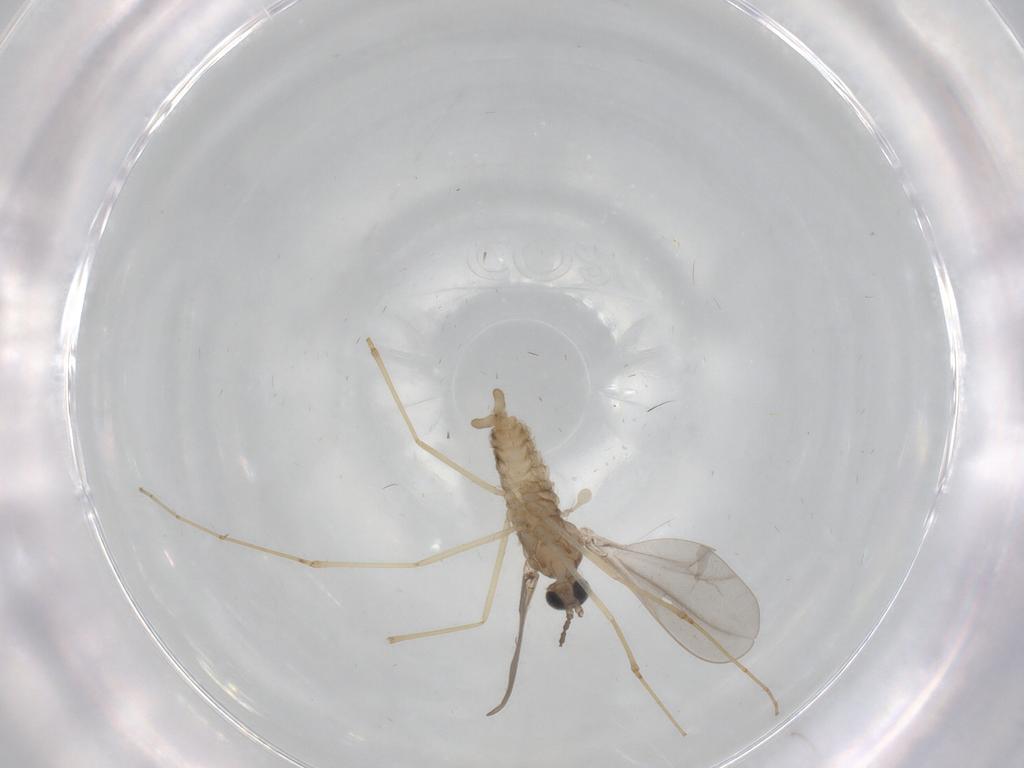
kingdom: Animalia
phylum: Arthropoda
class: Insecta
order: Diptera
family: Cecidomyiidae
